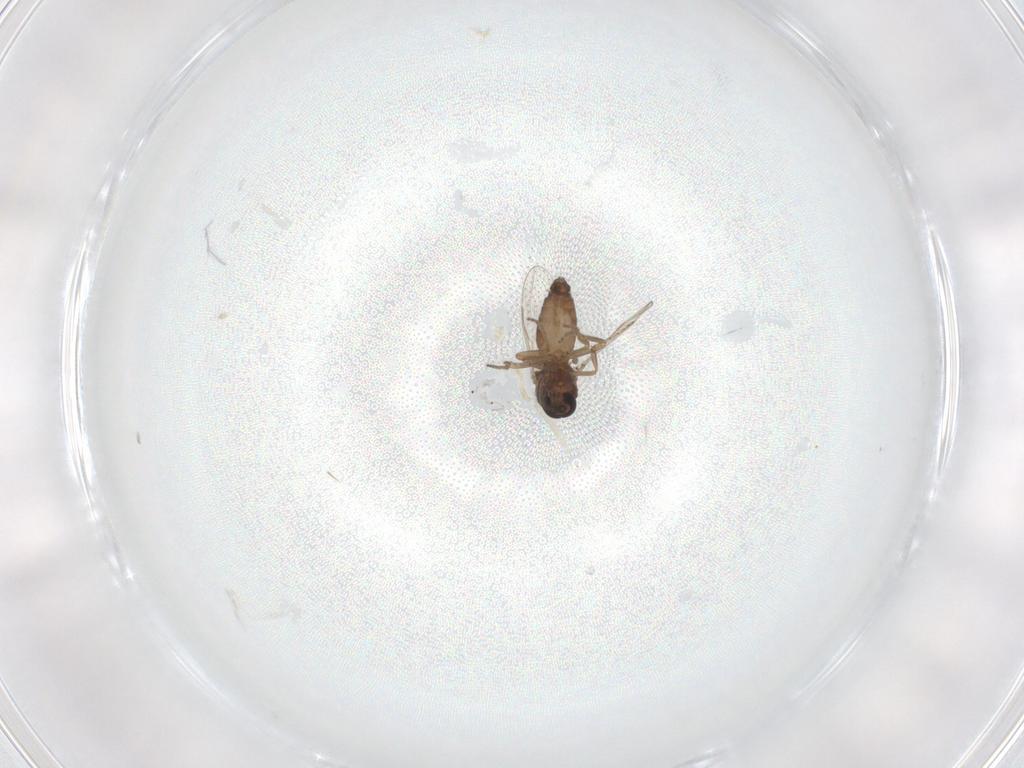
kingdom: Animalia
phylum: Arthropoda
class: Insecta
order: Diptera
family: Ceratopogonidae
